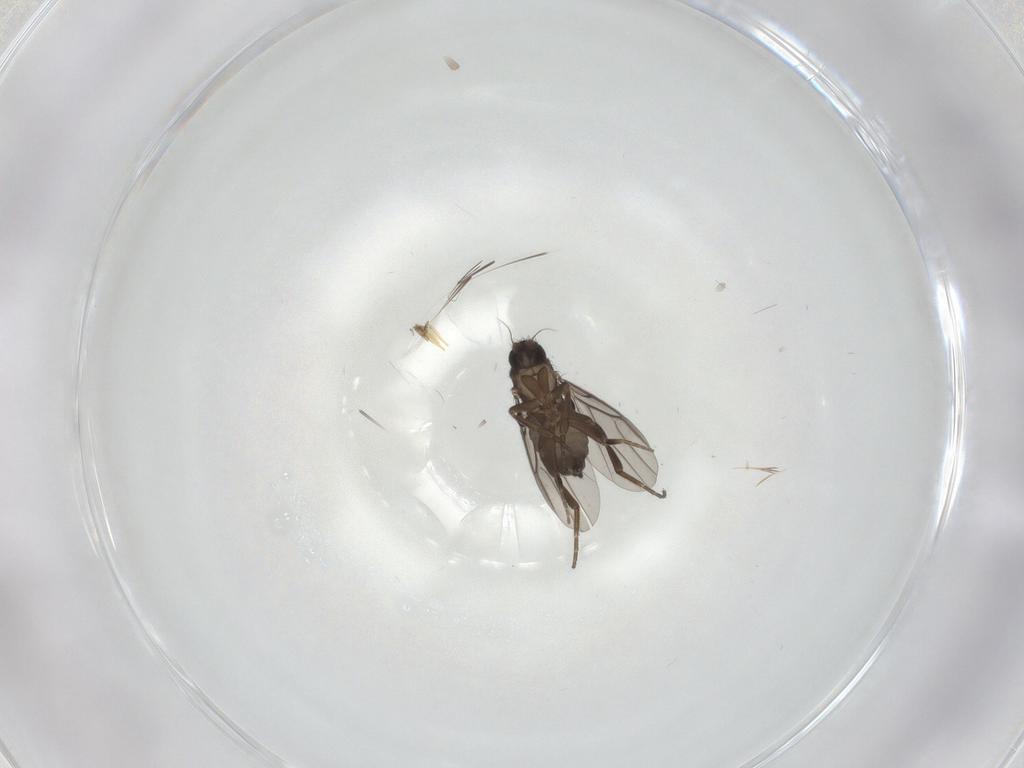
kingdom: Animalia
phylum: Arthropoda
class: Insecta
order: Diptera
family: Phoridae
